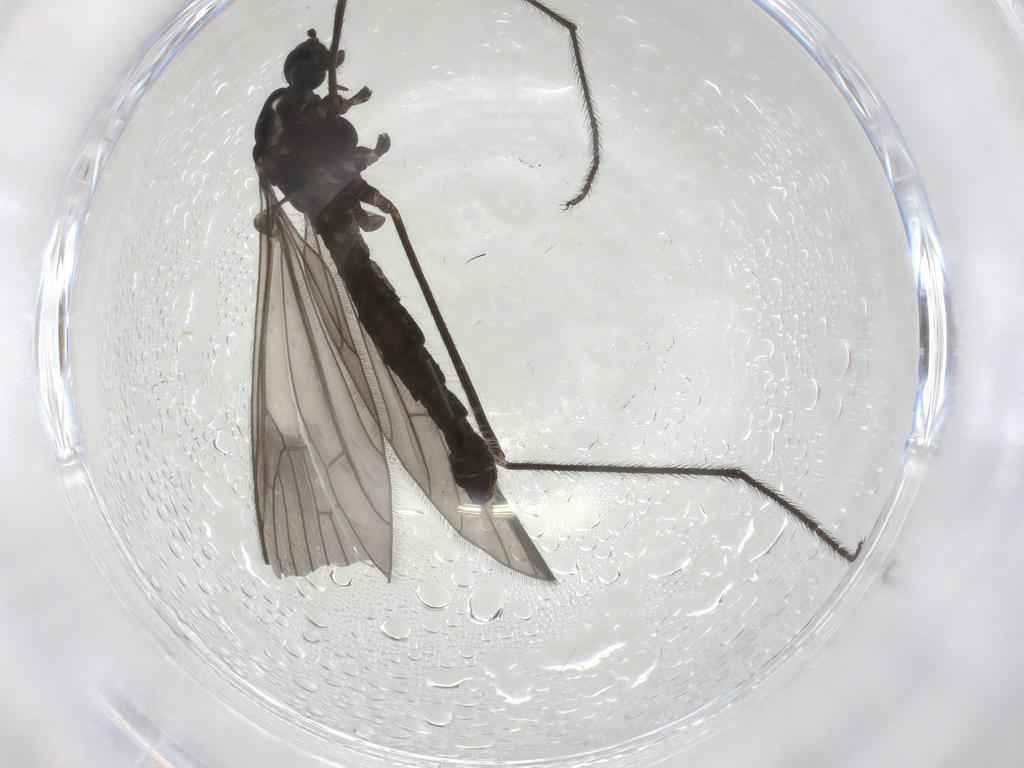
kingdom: Animalia
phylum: Arthropoda
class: Insecta
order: Diptera
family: Limoniidae
